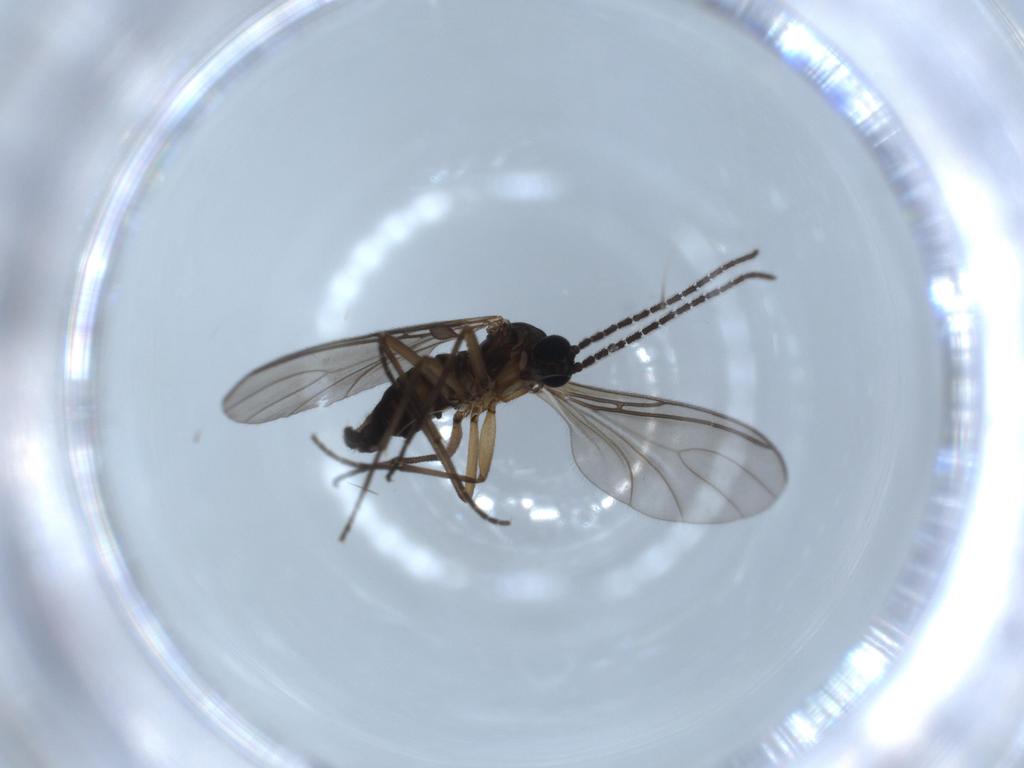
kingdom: Animalia
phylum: Arthropoda
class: Insecta
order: Diptera
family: Sciaridae
